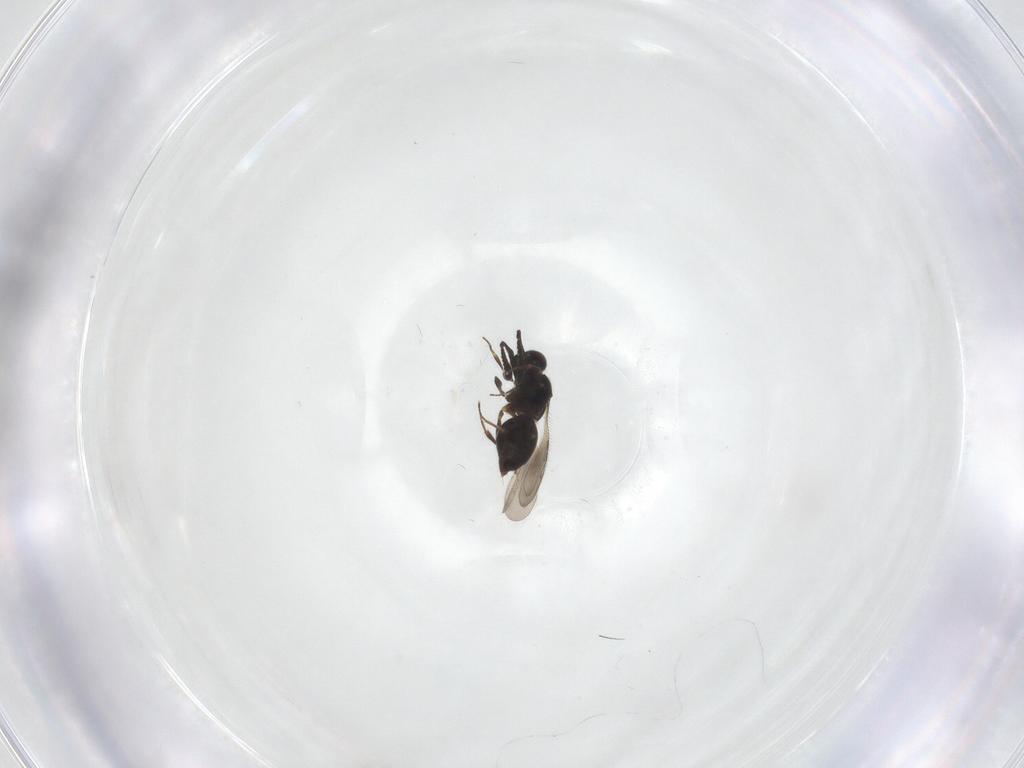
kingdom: Animalia
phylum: Arthropoda
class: Insecta
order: Hymenoptera
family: Ceraphronidae
